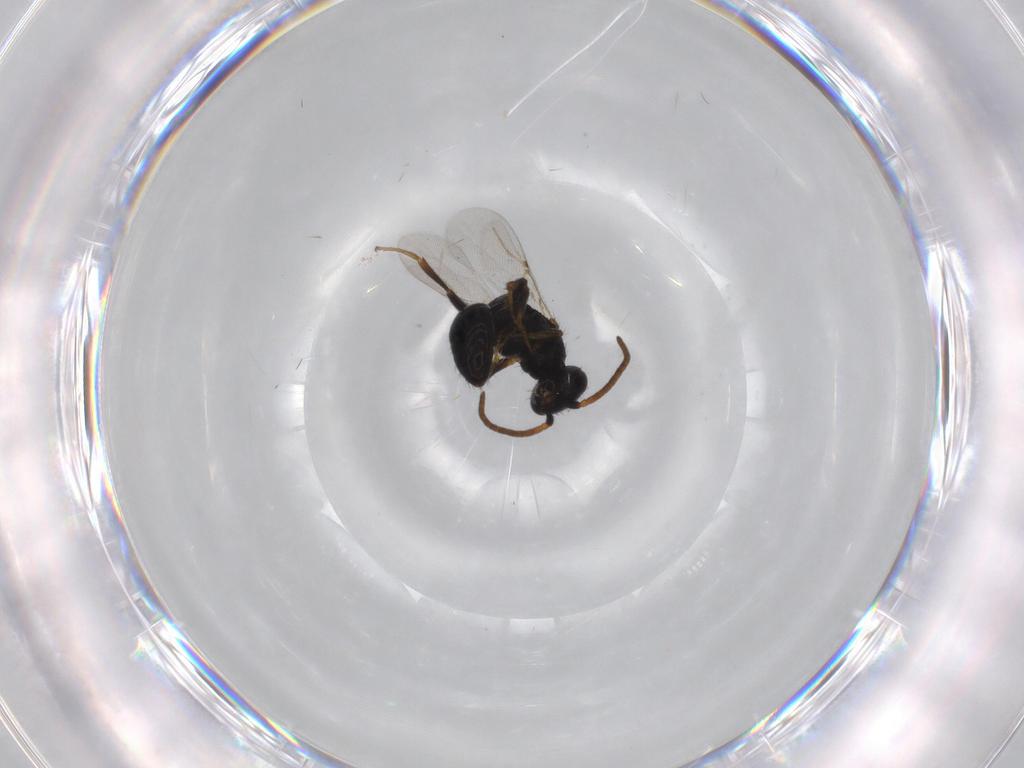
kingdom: Animalia
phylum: Arthropoda
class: Insecta
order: Hymenoptera
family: Bethylidae
